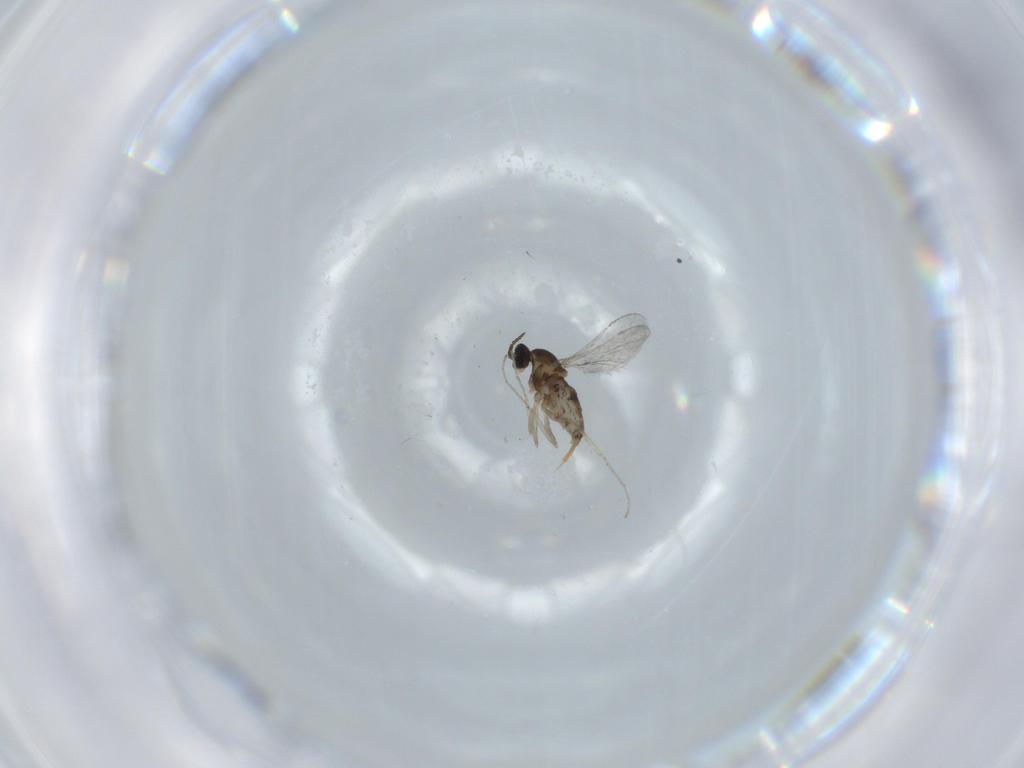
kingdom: Animalia
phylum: Arthropoda
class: Insecta
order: Diptera
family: Cecidomyiidae
